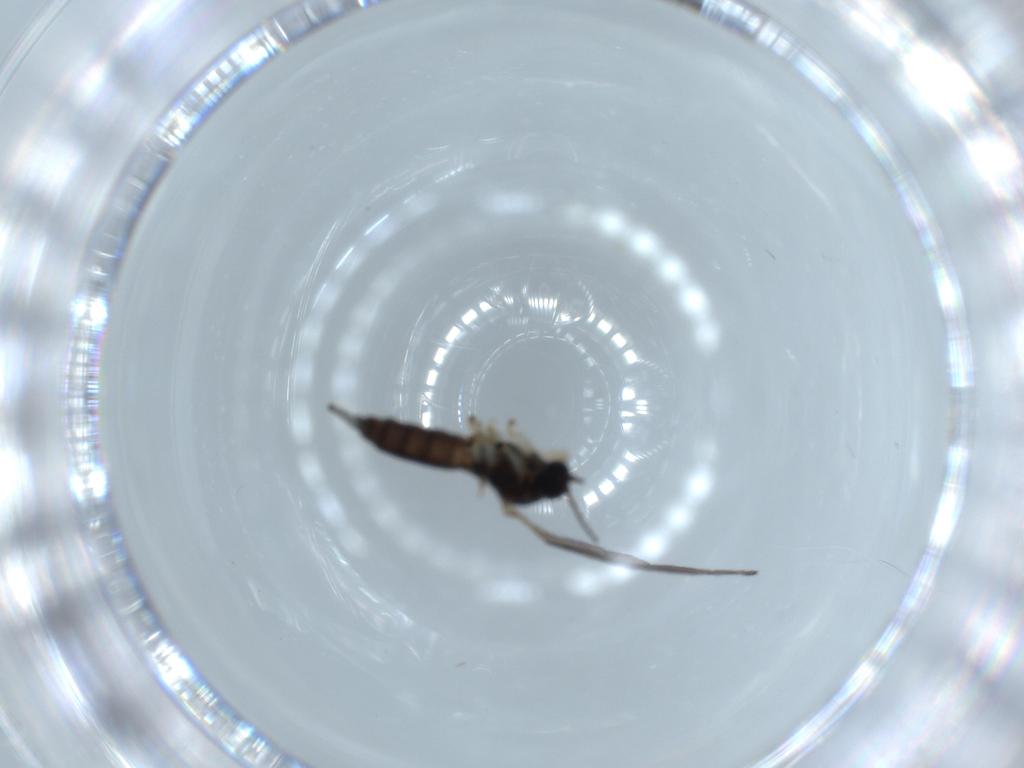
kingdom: Animalia
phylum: Arthropoda
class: Insecta
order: Diptera
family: Sciaridae
